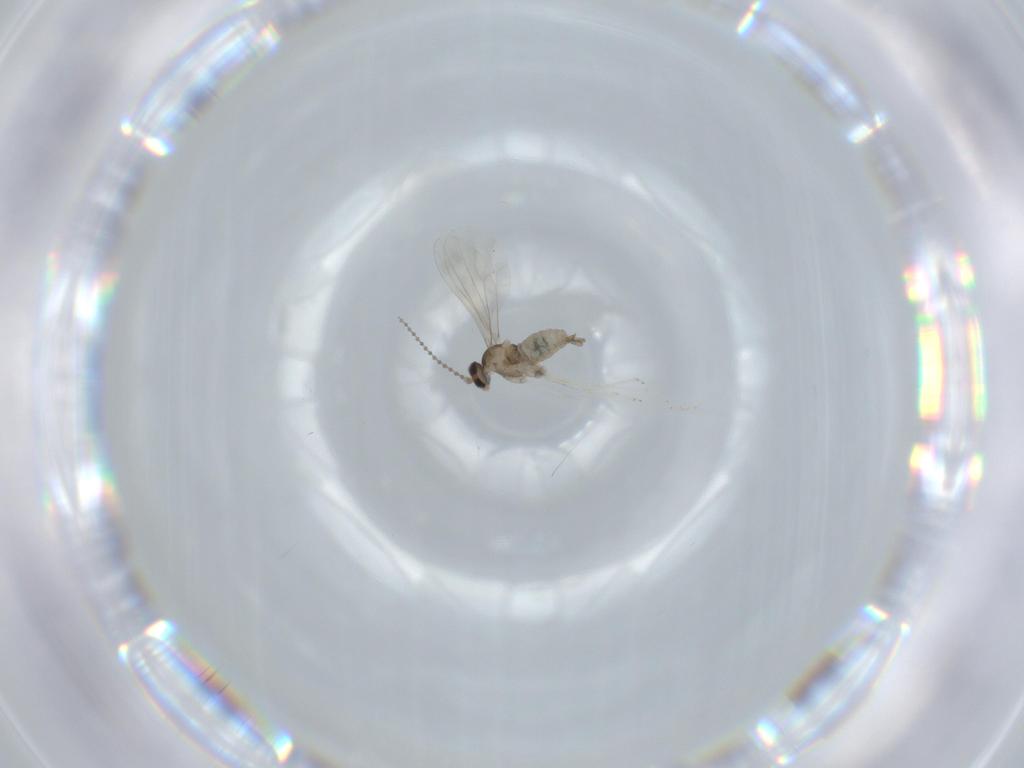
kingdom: Animalia
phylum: Arthropoda
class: Insecta
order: Diptera
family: Cecidomyiidae
